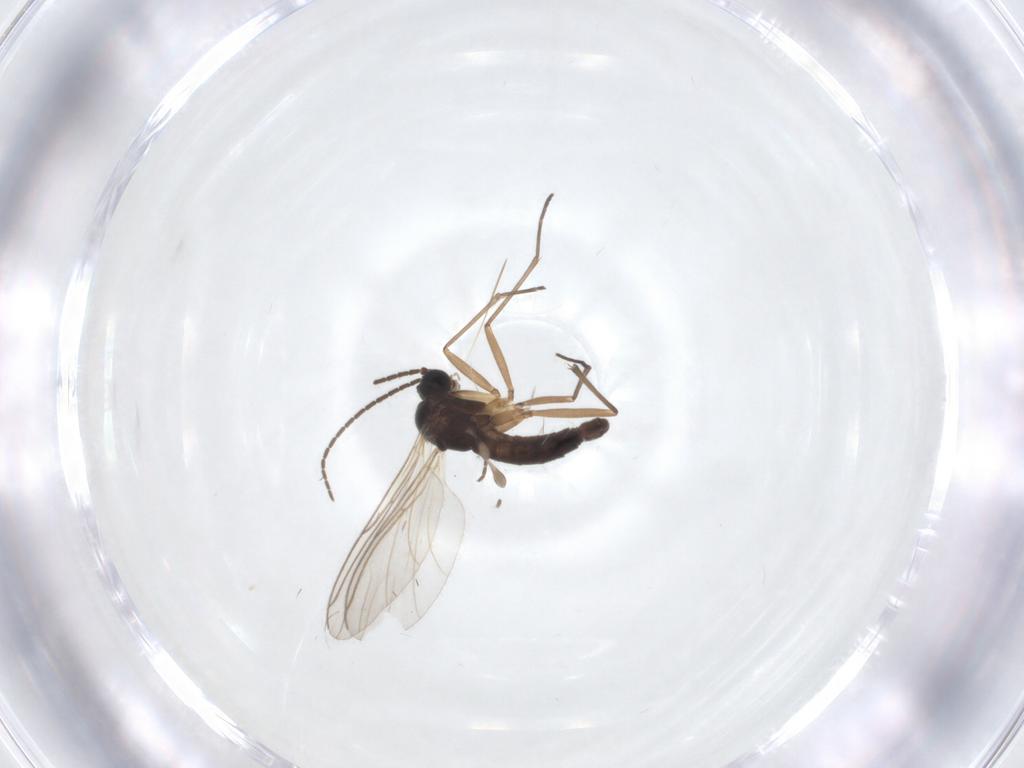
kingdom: Animalia
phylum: Arthropoda
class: Insecta
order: Diptera
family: Sciaridae
